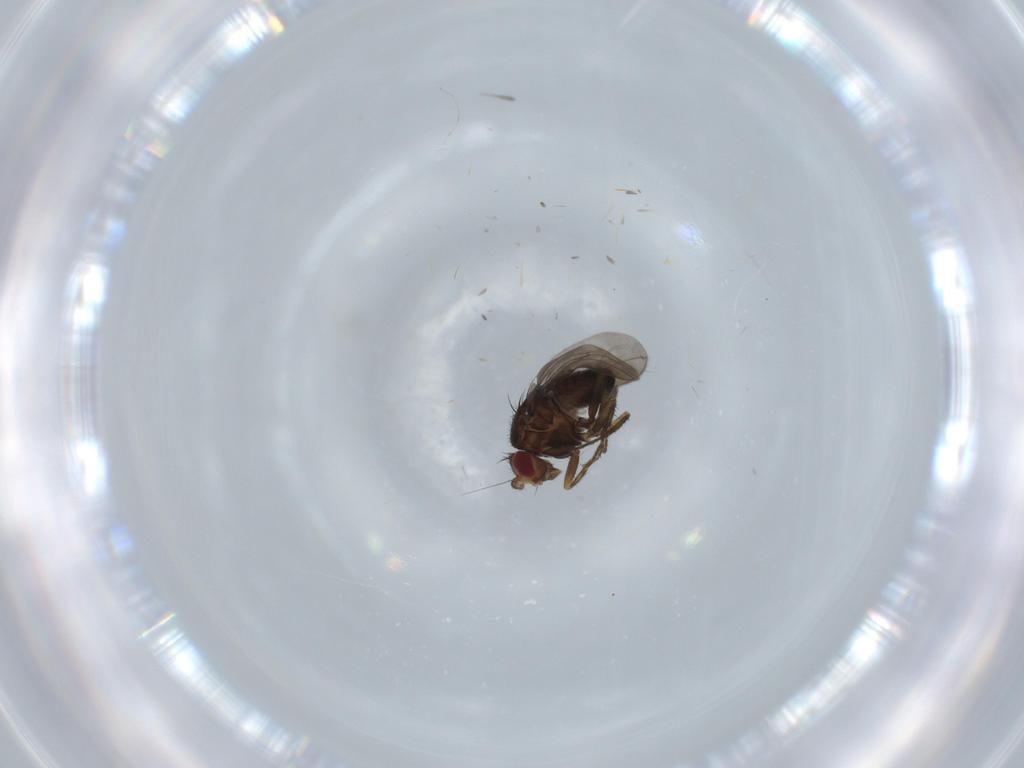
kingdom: Animalia
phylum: Arthropoda
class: Insecta
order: Diptera
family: Sphaeroceridae
